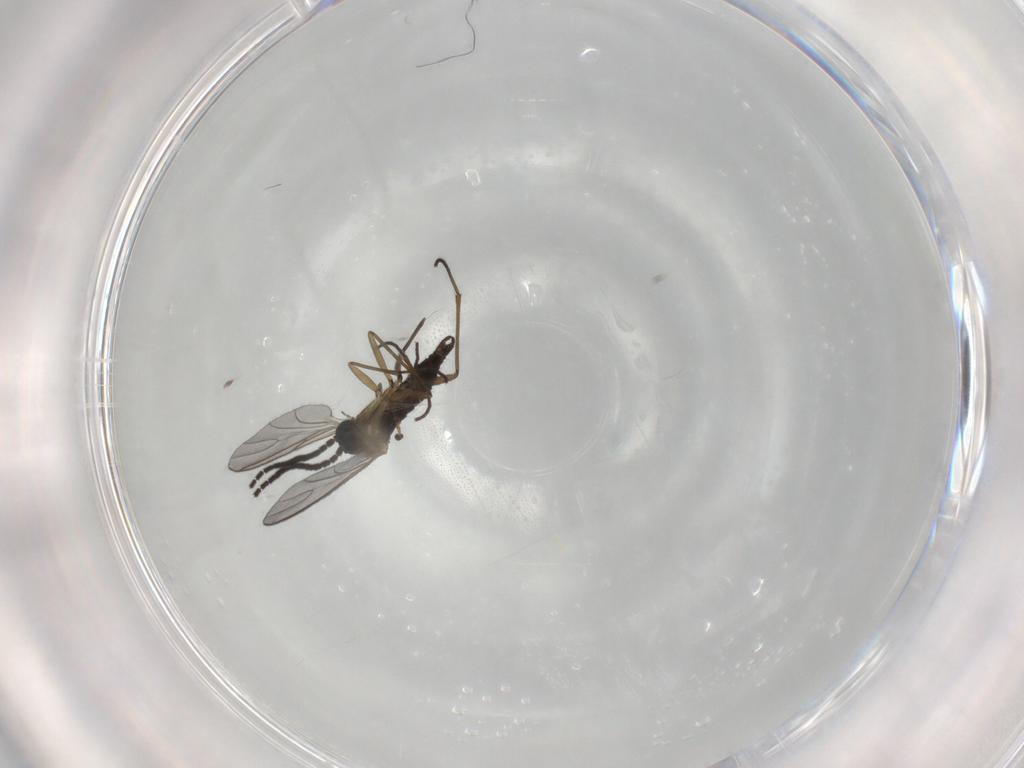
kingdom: Animalia
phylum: Arthropoda
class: Insecta
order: Diptera
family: Sciaridae
